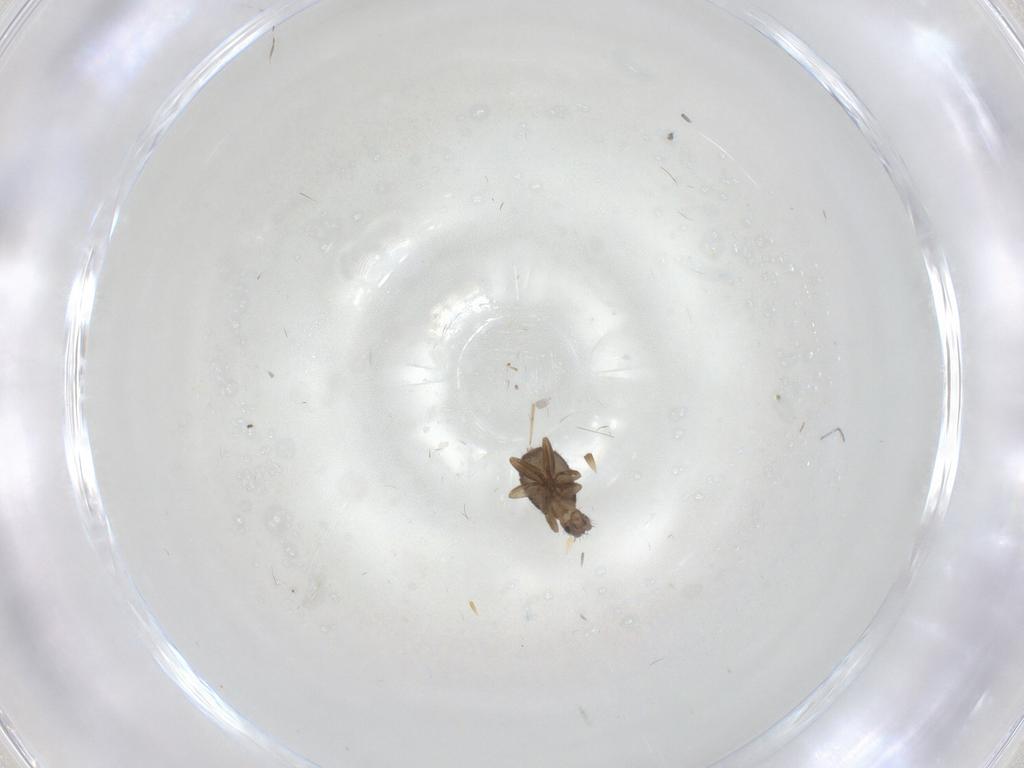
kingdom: Animalia
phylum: Arthropoda
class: Insecta
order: Diptera
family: Phoridae
